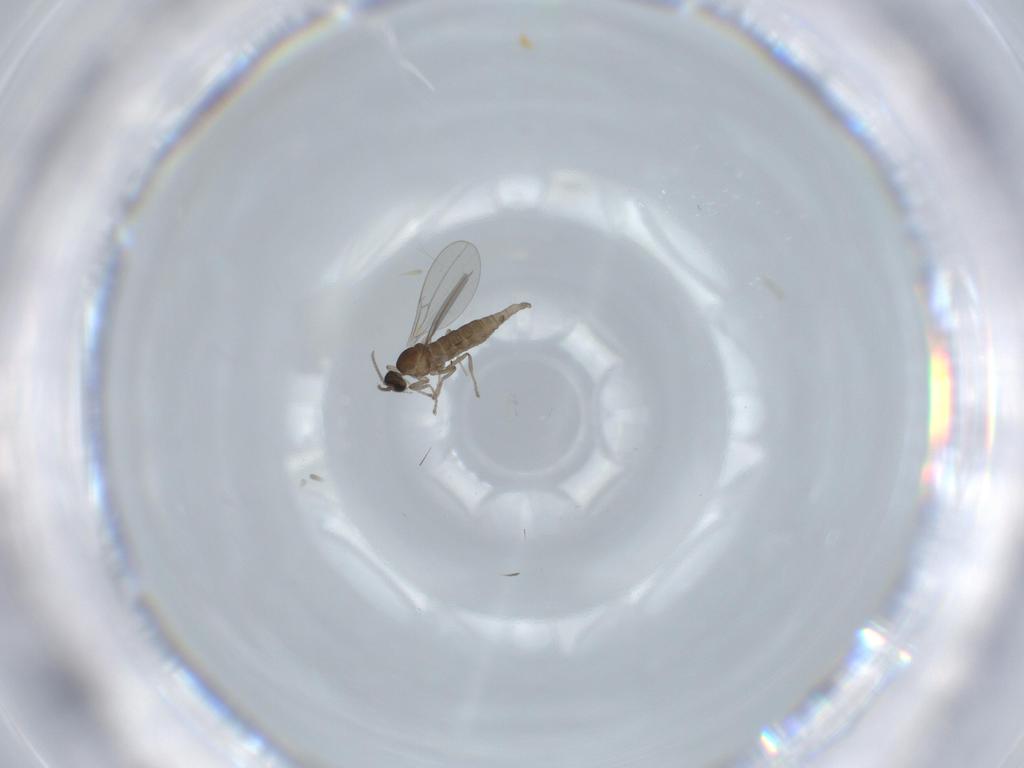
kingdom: Animalia
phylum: Arthropoda
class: Insecta
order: Diptera
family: Cecidomyiidae
